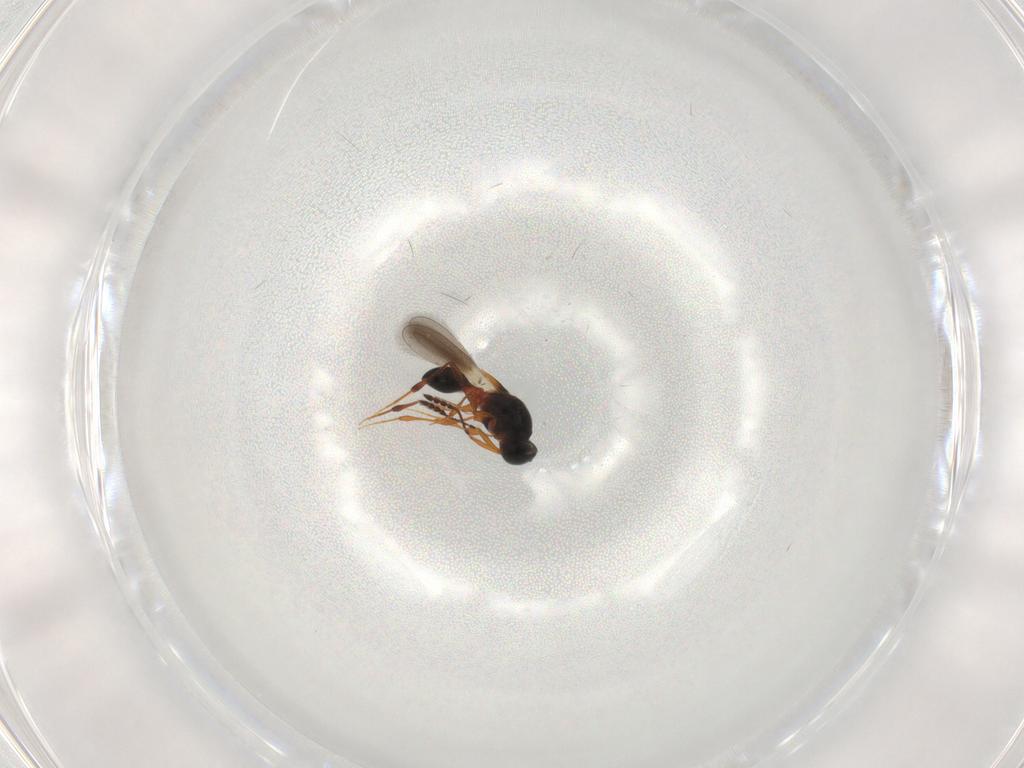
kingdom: Animalia
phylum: Arthropoda
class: Insecta
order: Hymenoptera
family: Platygastridae
